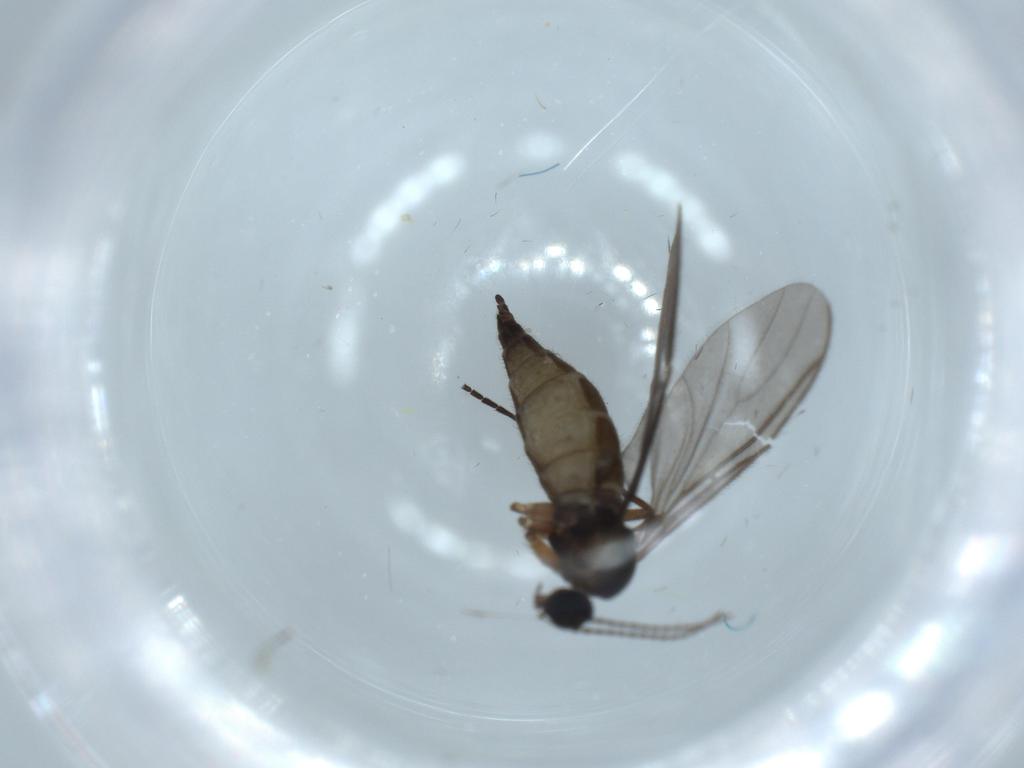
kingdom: Animalia
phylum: Arthropoda
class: Insecta
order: Diptera
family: Sciaridae
